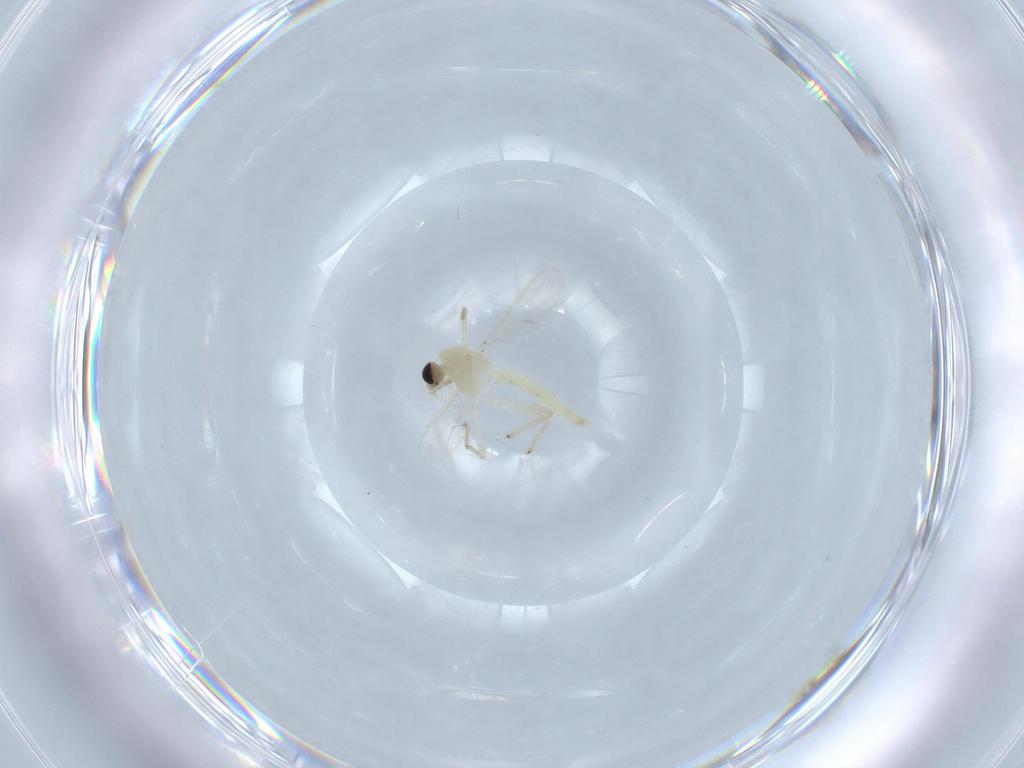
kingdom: Animalia
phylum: Arthropoda
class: Insecta
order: Diptera
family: Chironomidae
